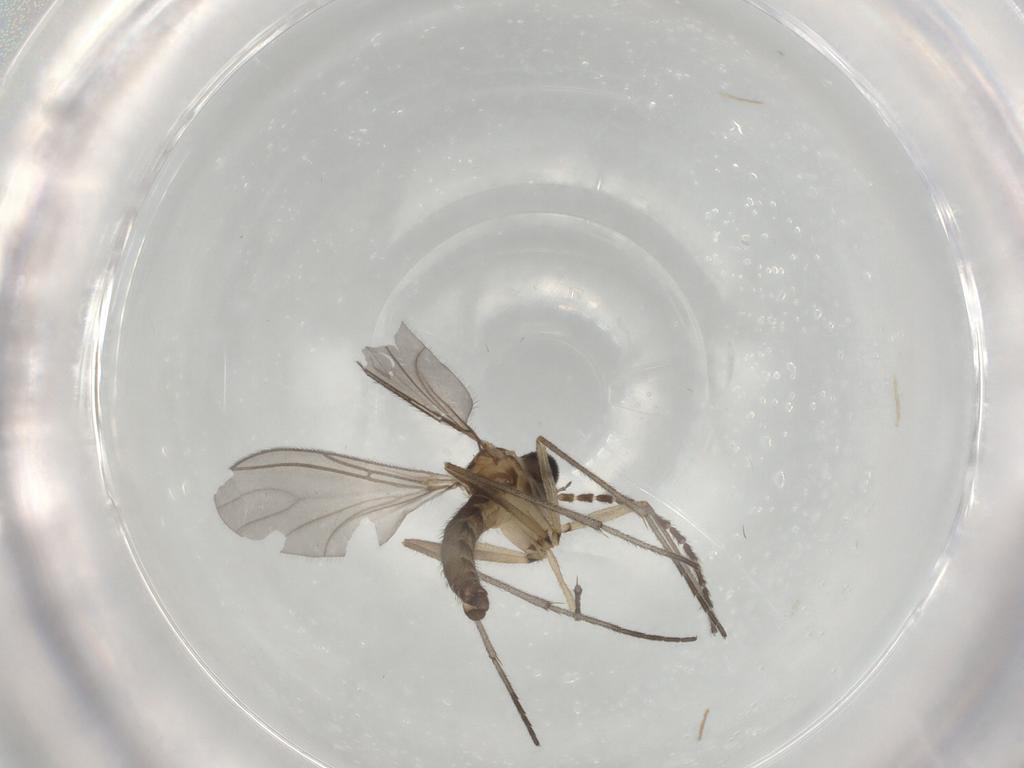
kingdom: Animalia
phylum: Arthropoda
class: Insecta
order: Diptera
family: Sciaridae
